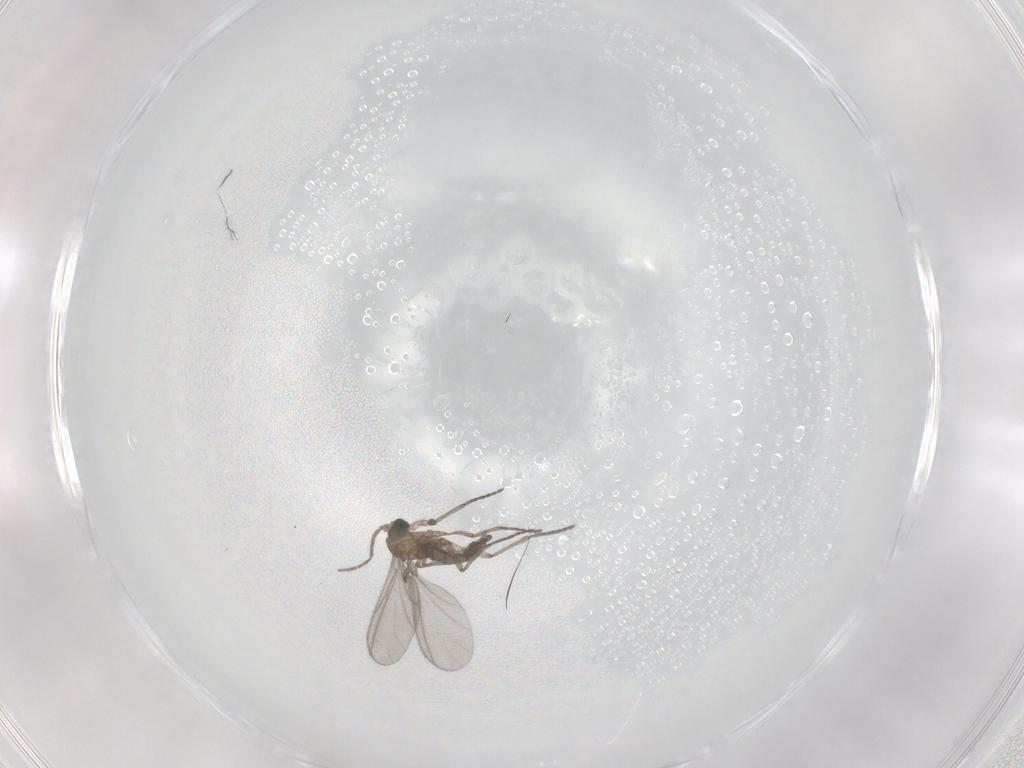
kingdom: Animalia
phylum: Arthropoda
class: Insecta
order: Diptera
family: Sciaridae
